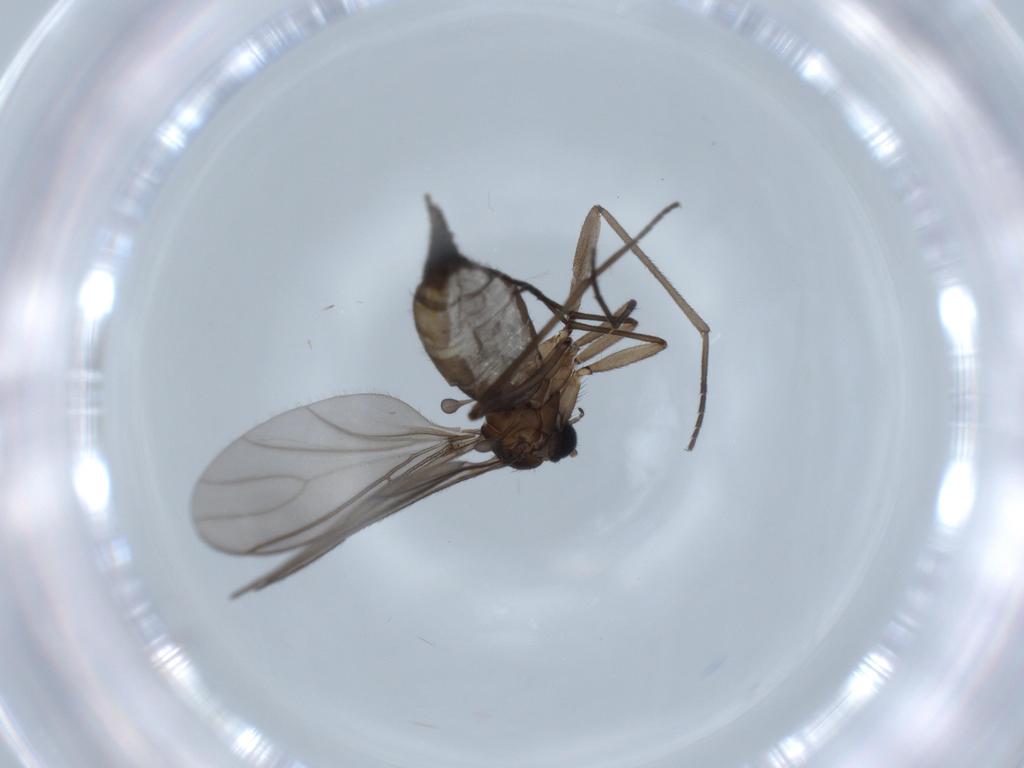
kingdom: Animalia
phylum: Arthropoda
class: Insecta
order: Diptera
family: Sciaridae
